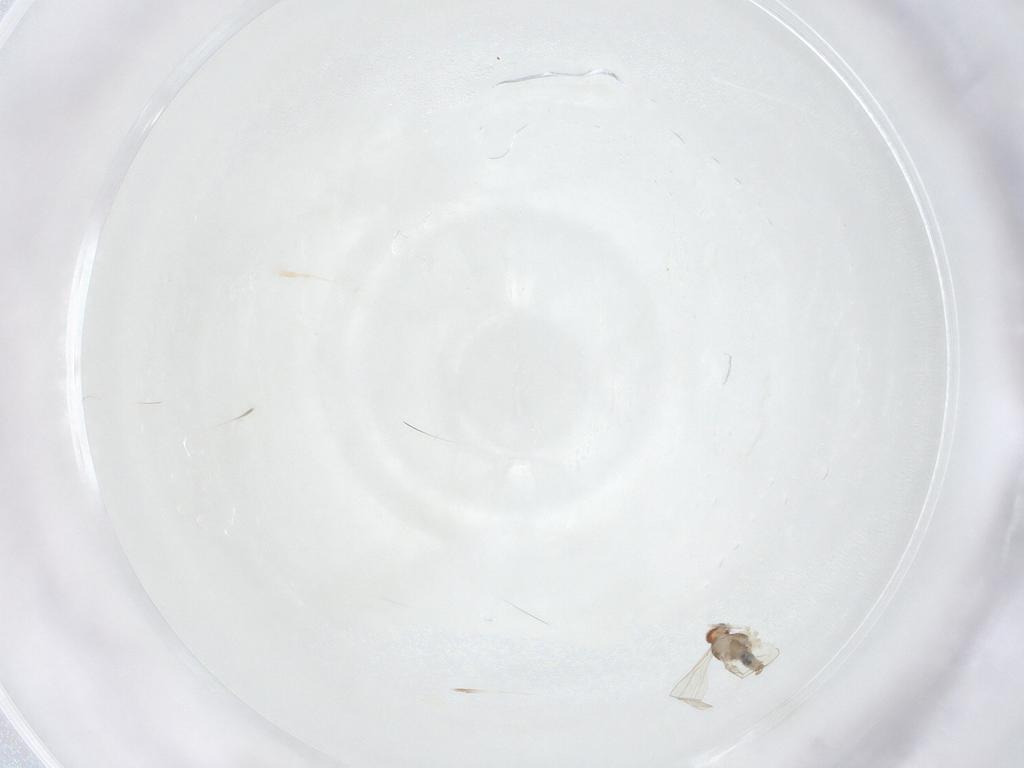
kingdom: Animalia
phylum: Arthropoda
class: Insecta
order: Diptera
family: Cecidomyiidae
